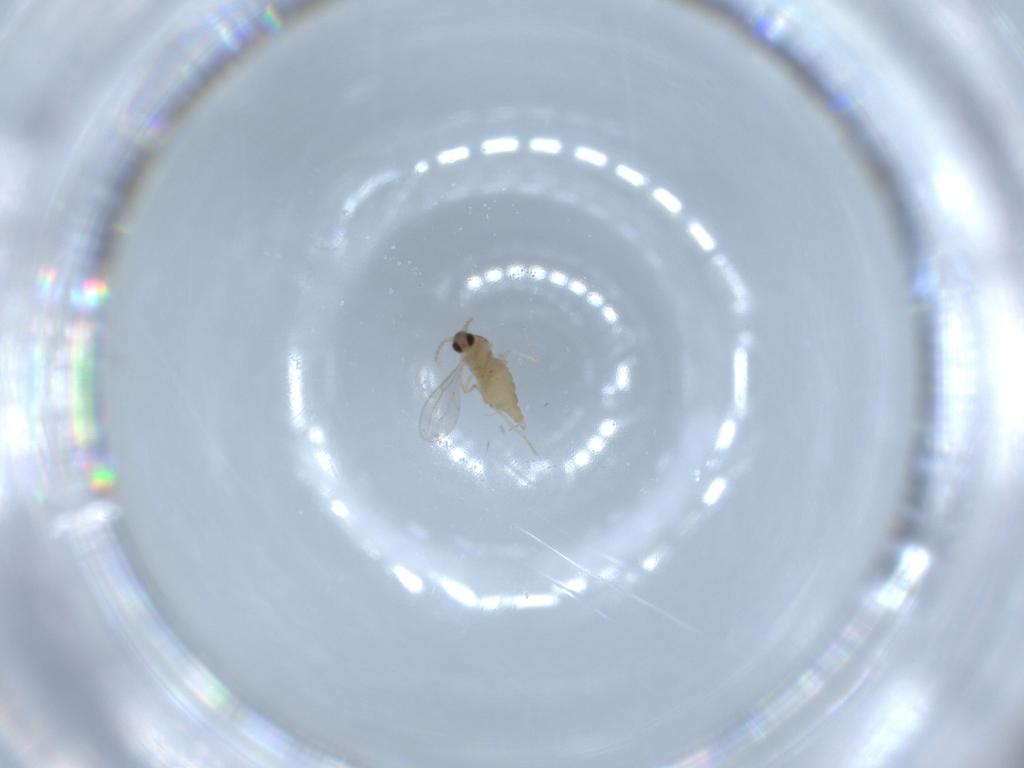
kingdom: Animalia
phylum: Arthropoda
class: Insecta
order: Diptera
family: Cecidomyiidae
